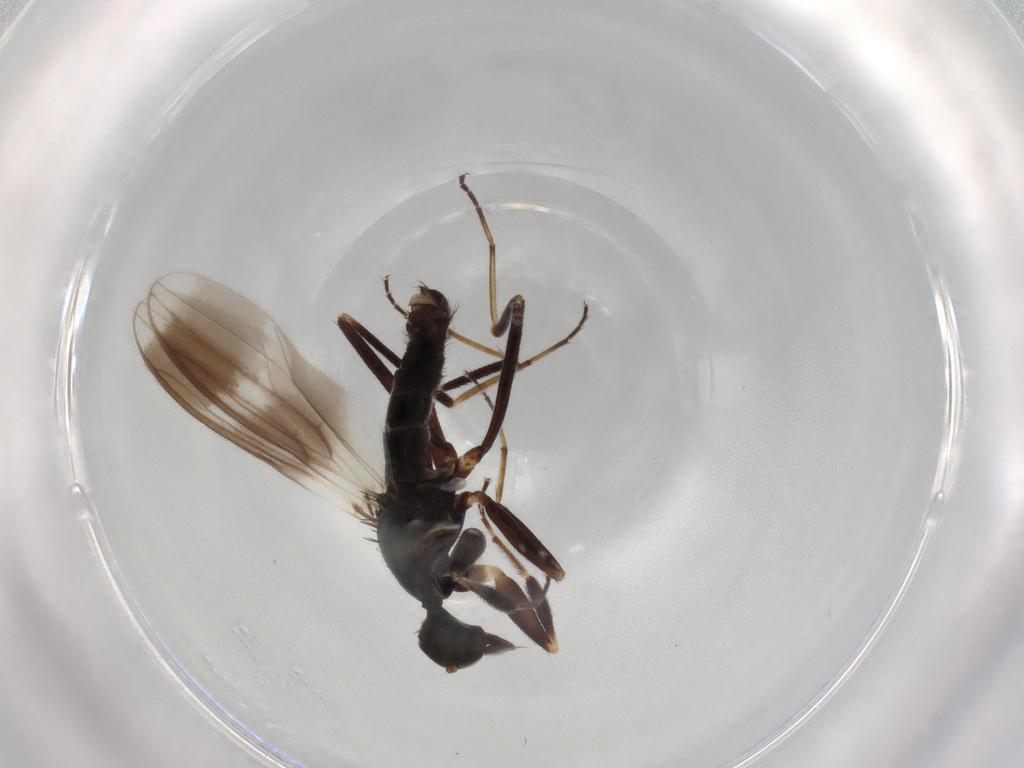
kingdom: Animalia
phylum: Arthropoda
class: Insecta
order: Diptera
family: Hybotidae
